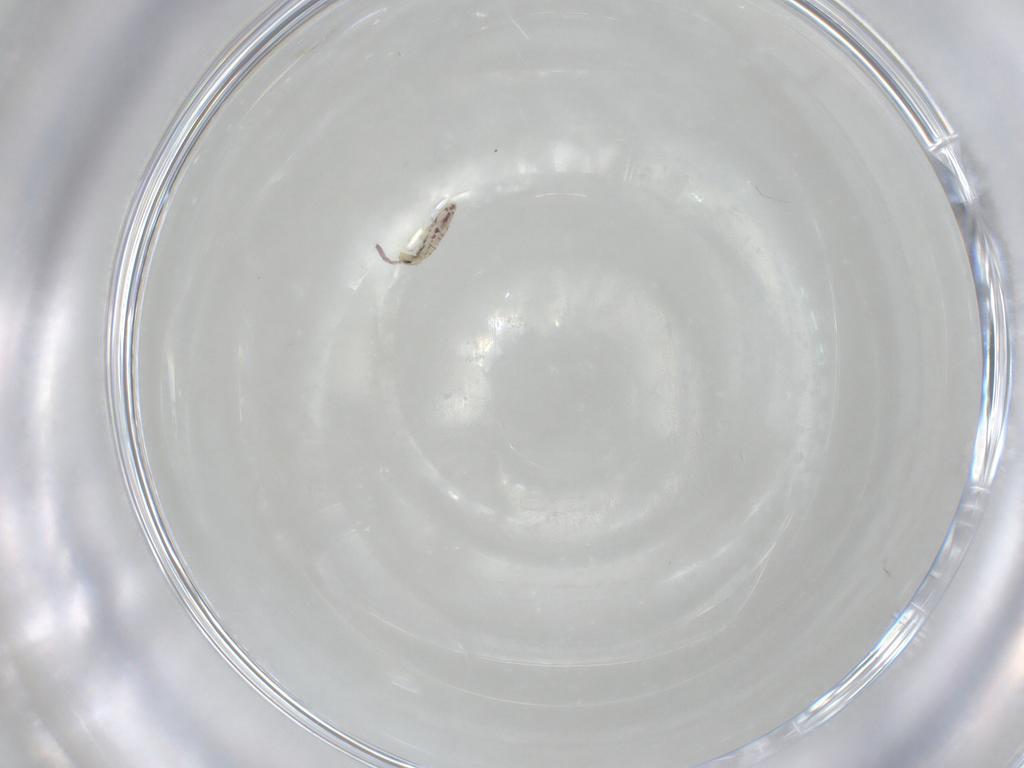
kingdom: Animalia
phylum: Arthropoda
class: Collembola
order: Entomobryomorpha
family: Entomobryidae
